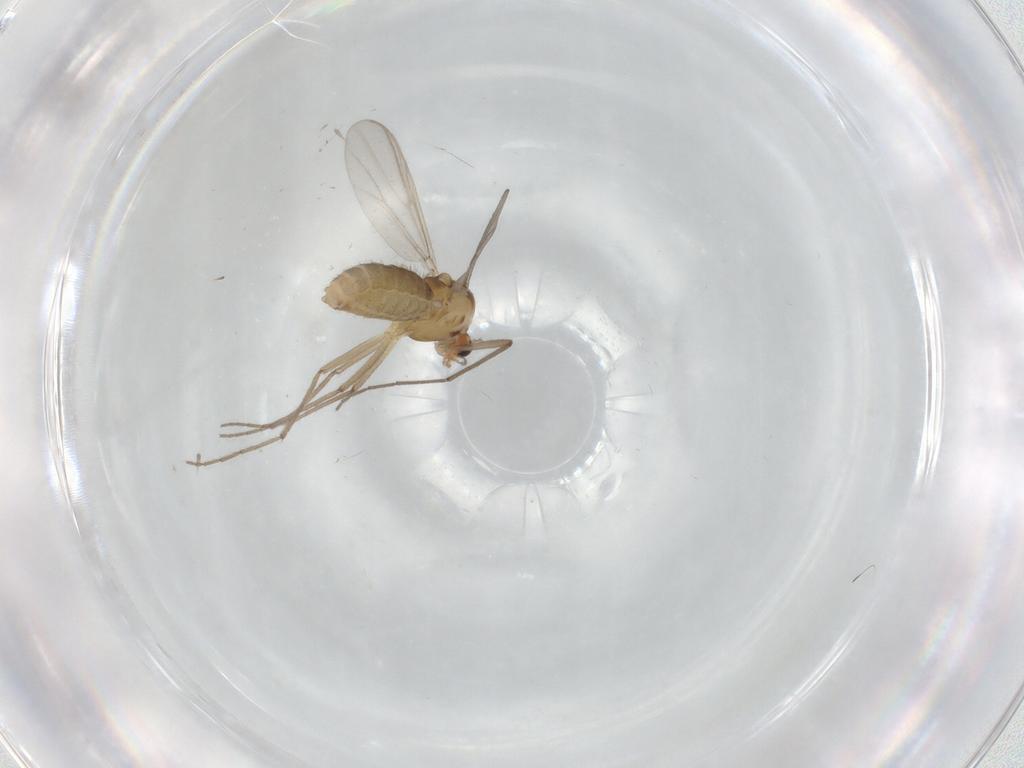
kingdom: Animalia
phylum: Arthropoda
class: Insecta
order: Diptera
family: Chironomidae
